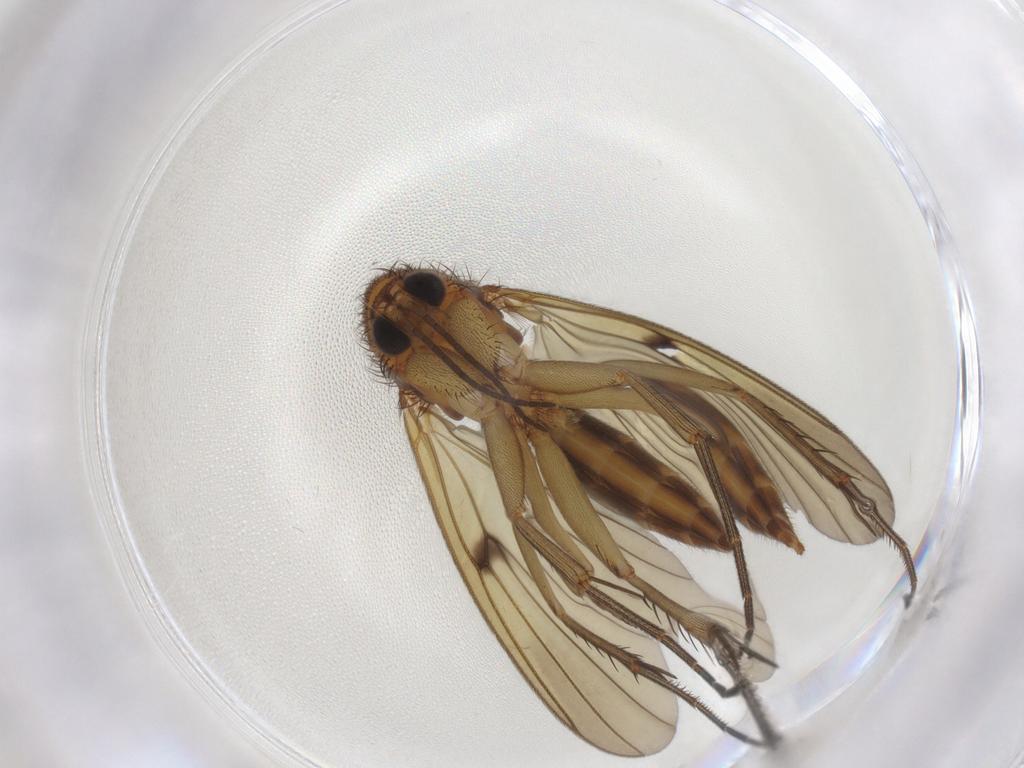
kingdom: Animalia
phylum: Arthropoda
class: Insecta
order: Diptera
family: Mycetophilidae
